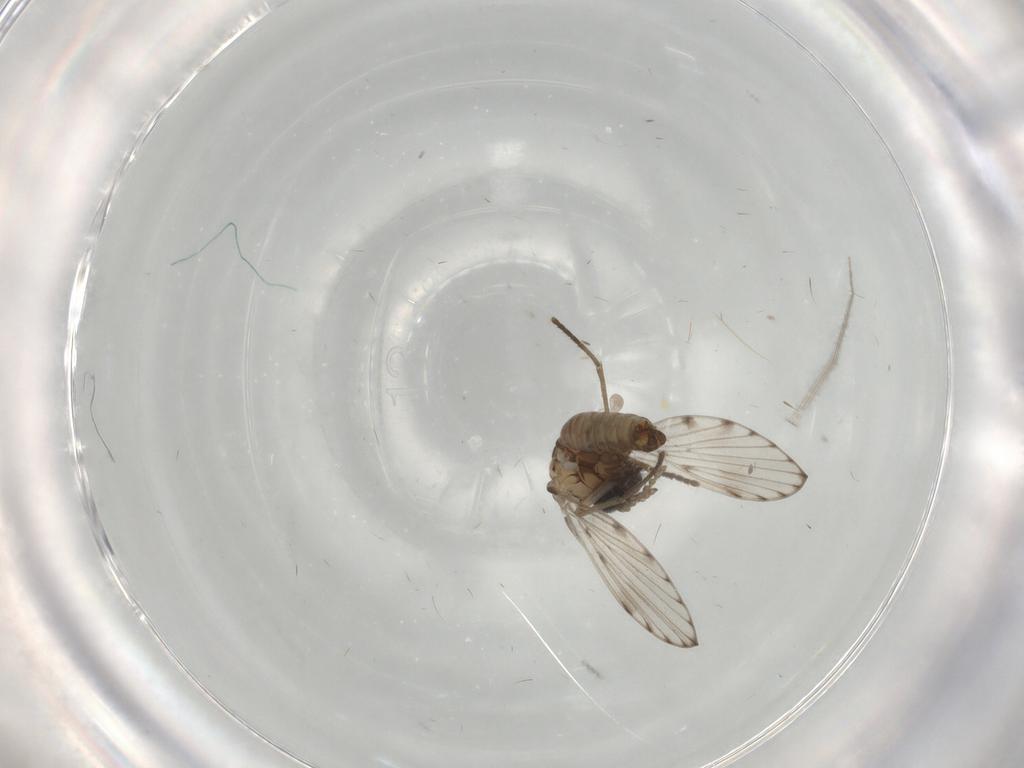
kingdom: Animalia
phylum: Arthropoda
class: Insecta
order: Diptera
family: Phoridae
